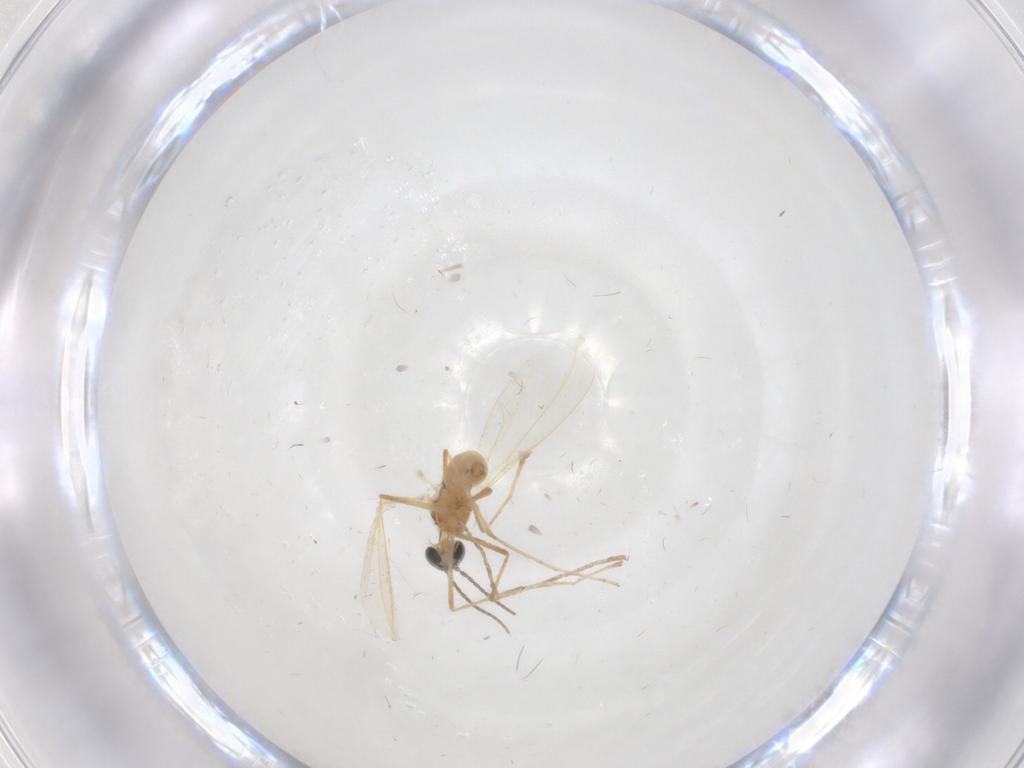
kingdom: Animalia
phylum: Arthropoda
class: Insecta
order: Diptera
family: Cecidomyiidae
